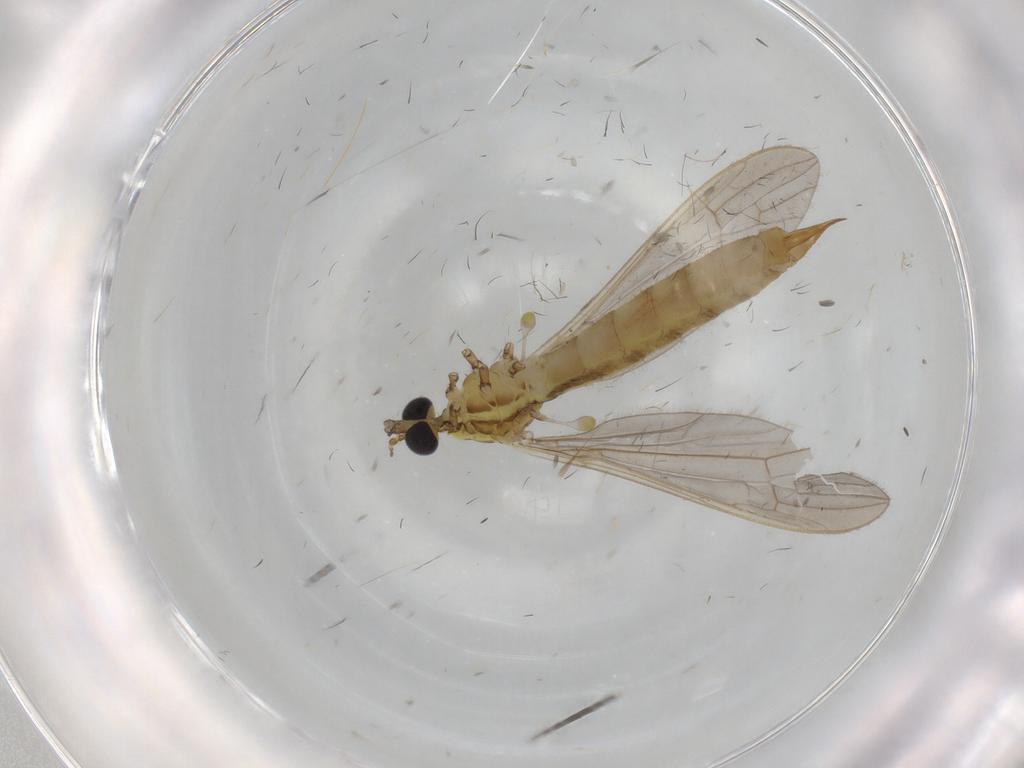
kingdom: Animalia
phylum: Arthropoda
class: Insecta
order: Diptera
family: Limoniidae
